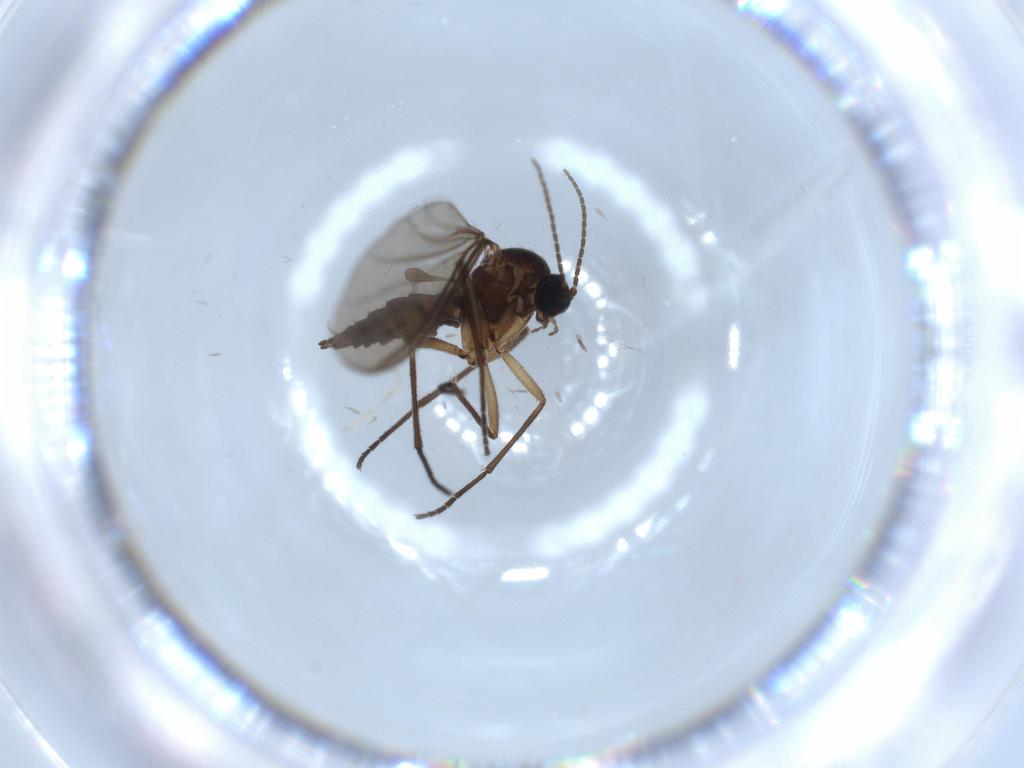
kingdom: Animalia
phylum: Arthropoda
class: Insecta
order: Diptera
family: Sciaridae
